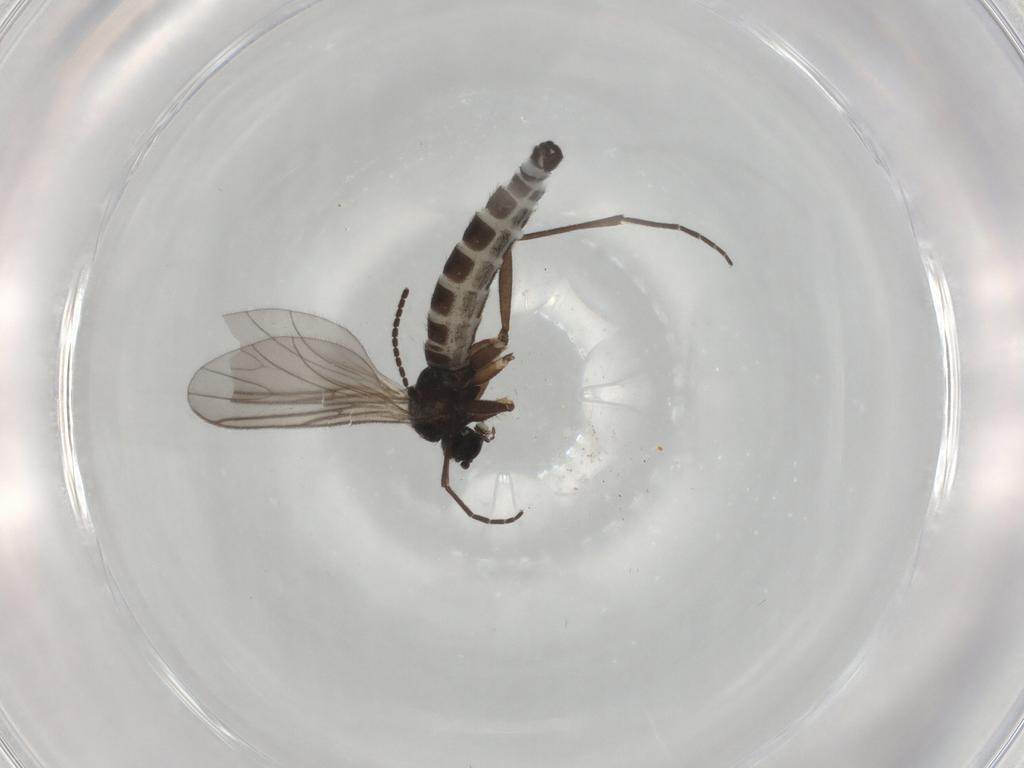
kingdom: Animalia
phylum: Arthropoda
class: Insecta
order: Diptera
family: Sciaridae
